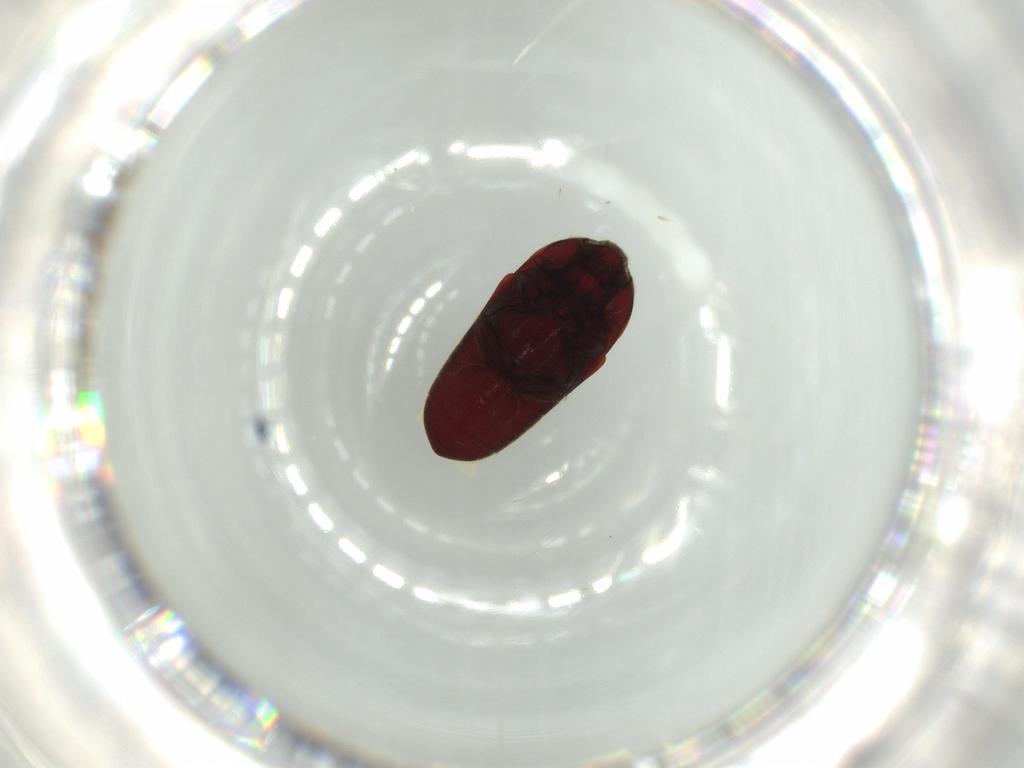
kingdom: Animalia
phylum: Arthropoda
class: Insecta
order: Coleoptera
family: Throscidae
